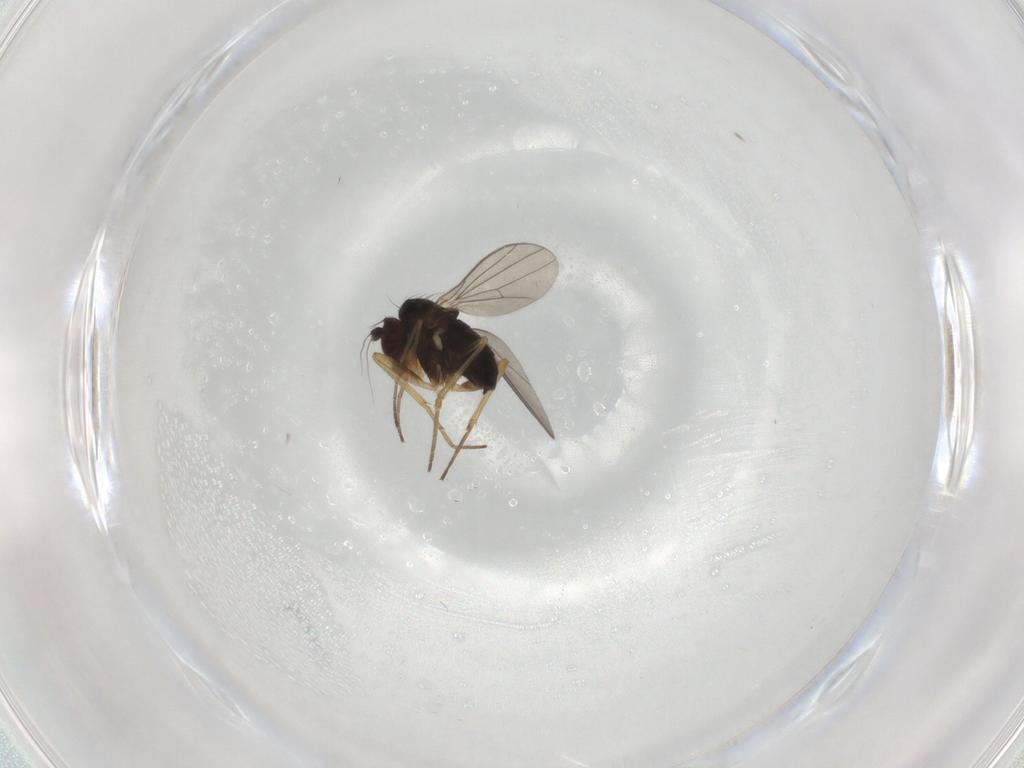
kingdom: Animalia
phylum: Arthropoda
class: Insecta
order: Diptera
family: Dolichopodidae
